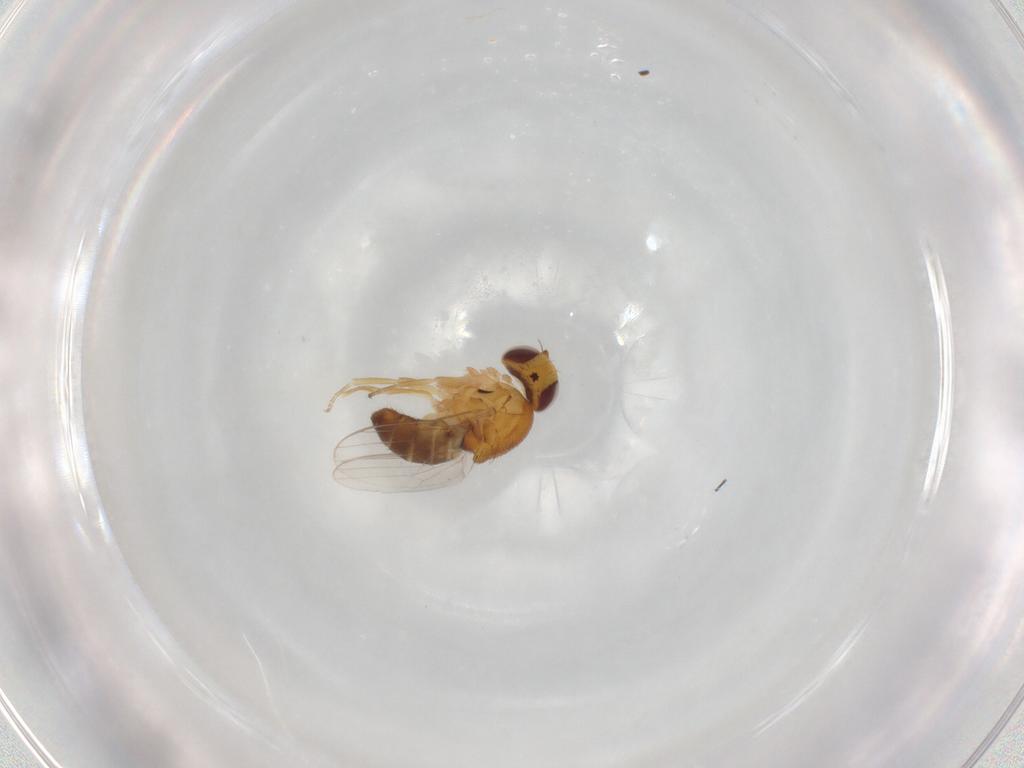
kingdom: Animalia
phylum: Arthropoda
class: Insecta
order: Diptera
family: Chloropidae
